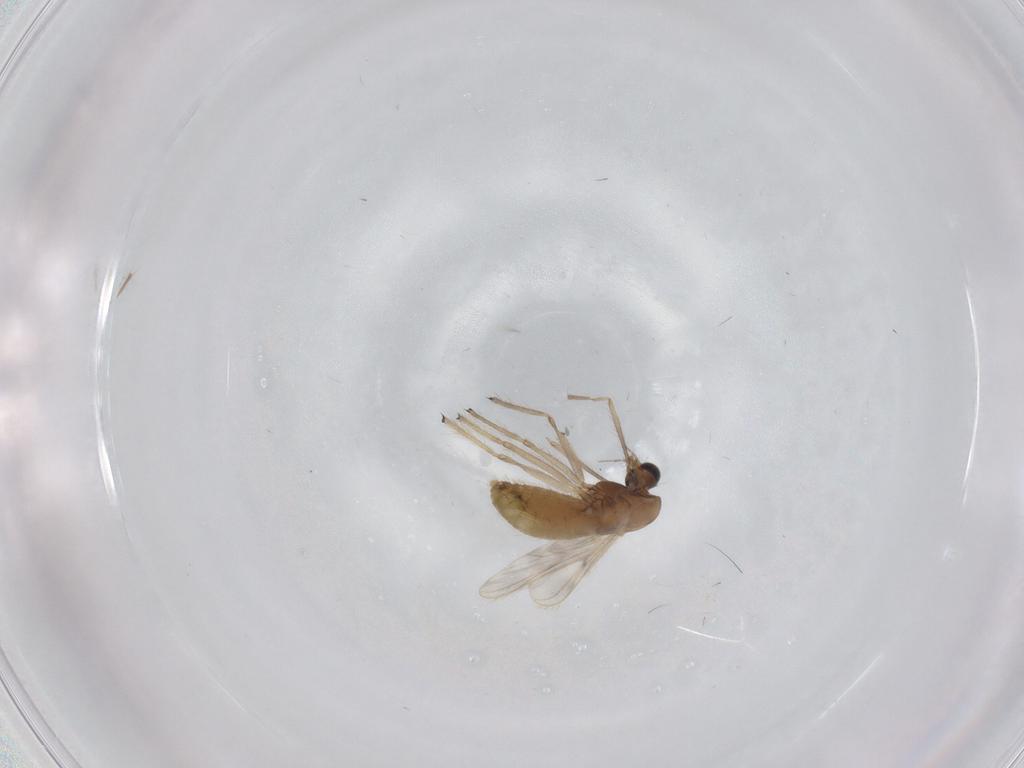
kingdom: Animalia
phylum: Arthropoda
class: Insecta
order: Diptera
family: Chironomidae
